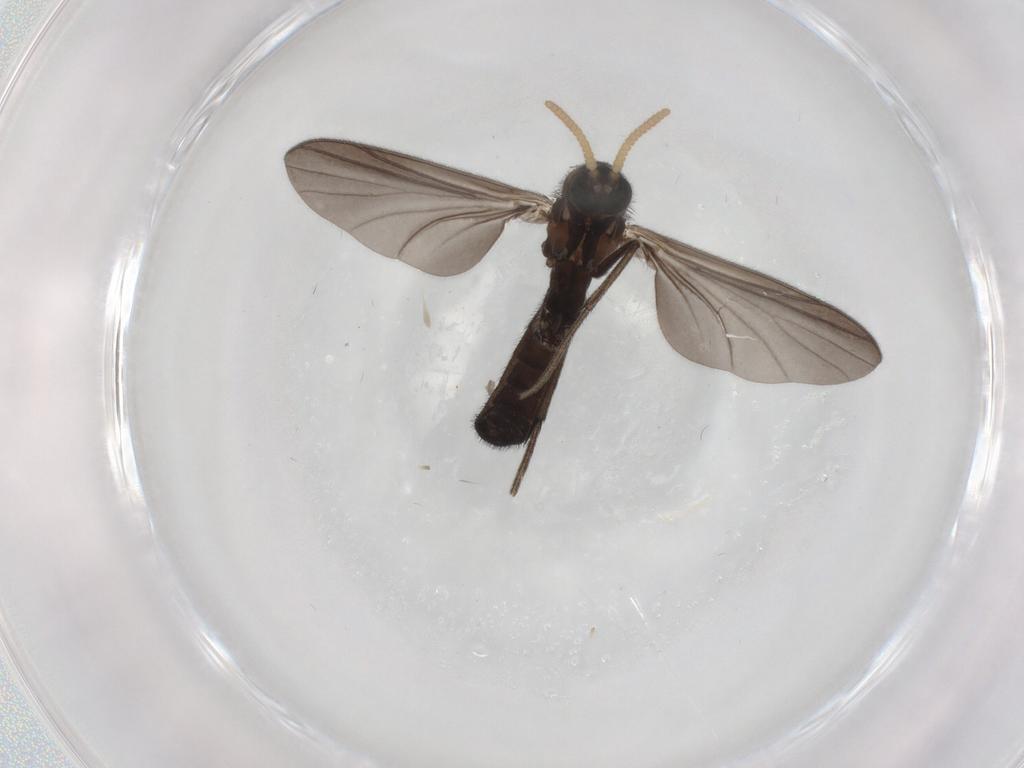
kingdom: Animalia
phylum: Arthropoda
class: Insecta
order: Diptera
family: Mycetophilidae
